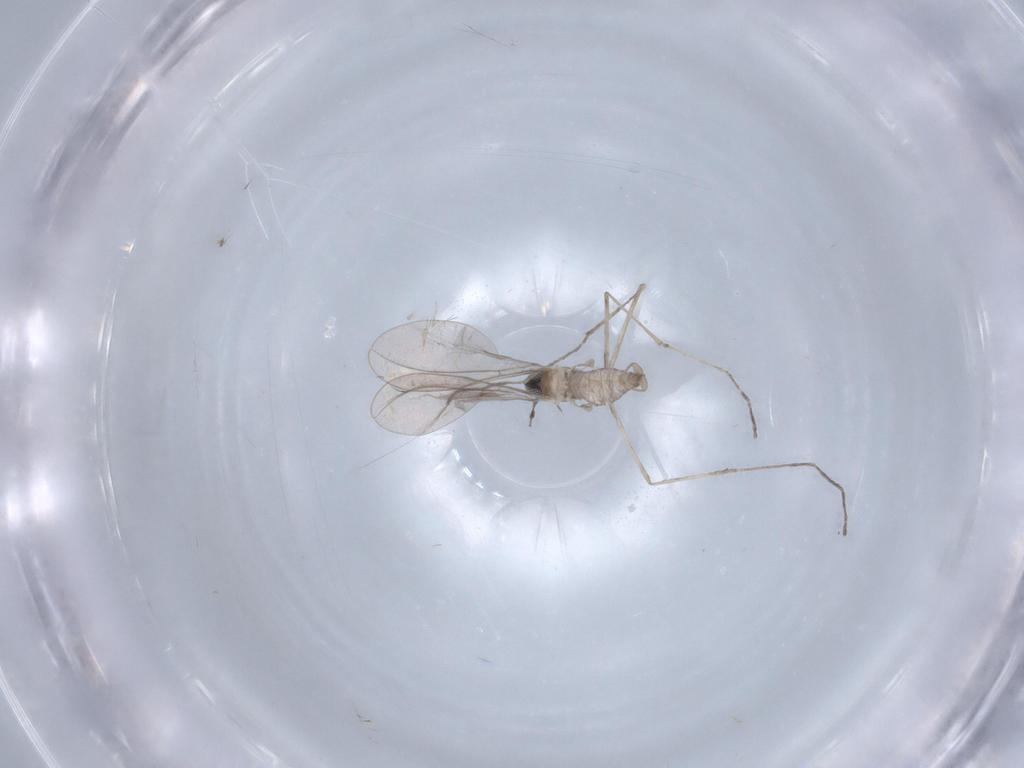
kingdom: Animalia
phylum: Arthropoda
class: Insecta
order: Diptera
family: Cecidomyiidae
